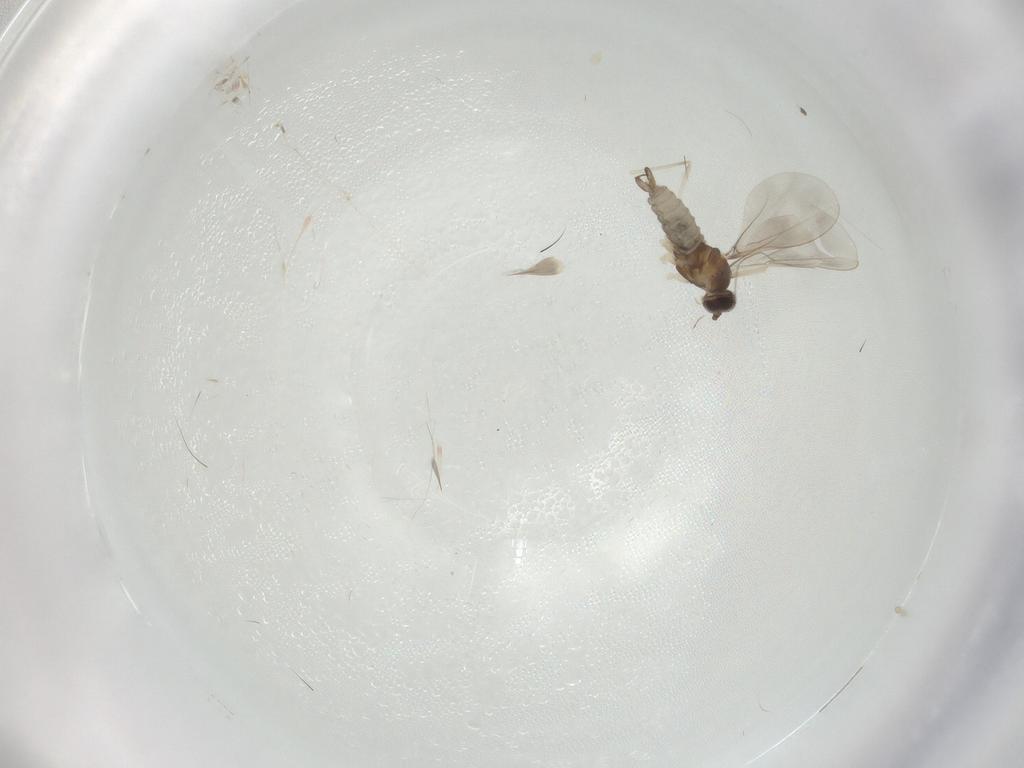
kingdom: Animalia
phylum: Arthropoda
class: Insecta
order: Diptera
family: Cecidomyiidae
